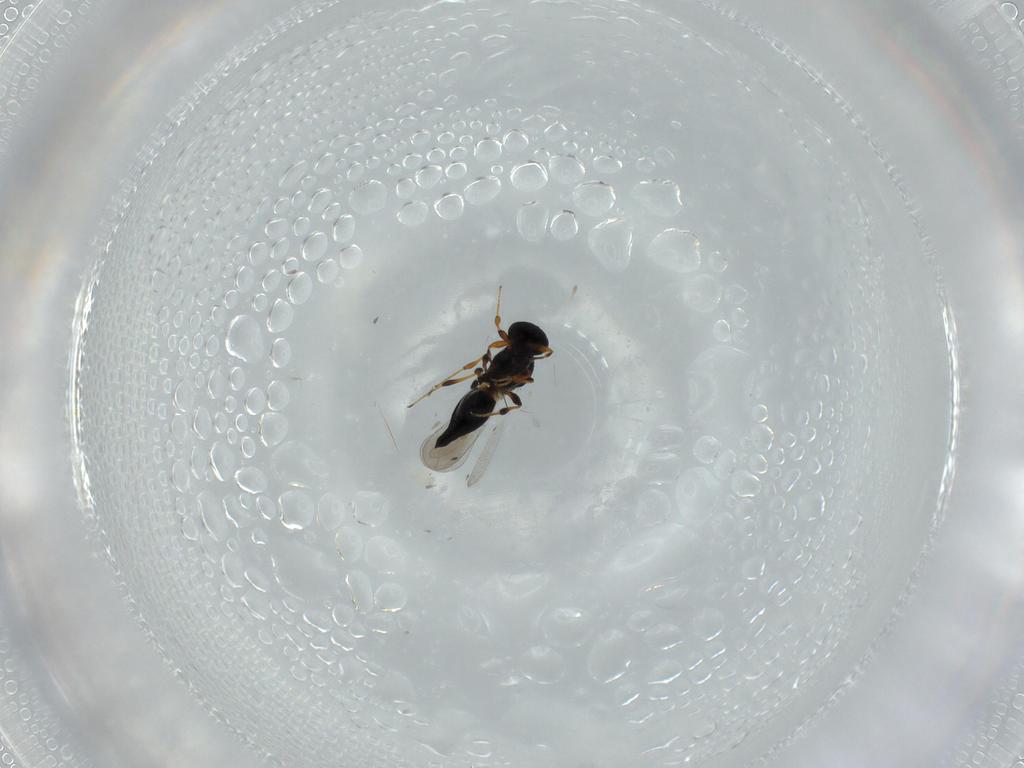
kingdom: Animalia
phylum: Arthropoda
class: Insecta
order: Hymenoptera
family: Platygastridae
